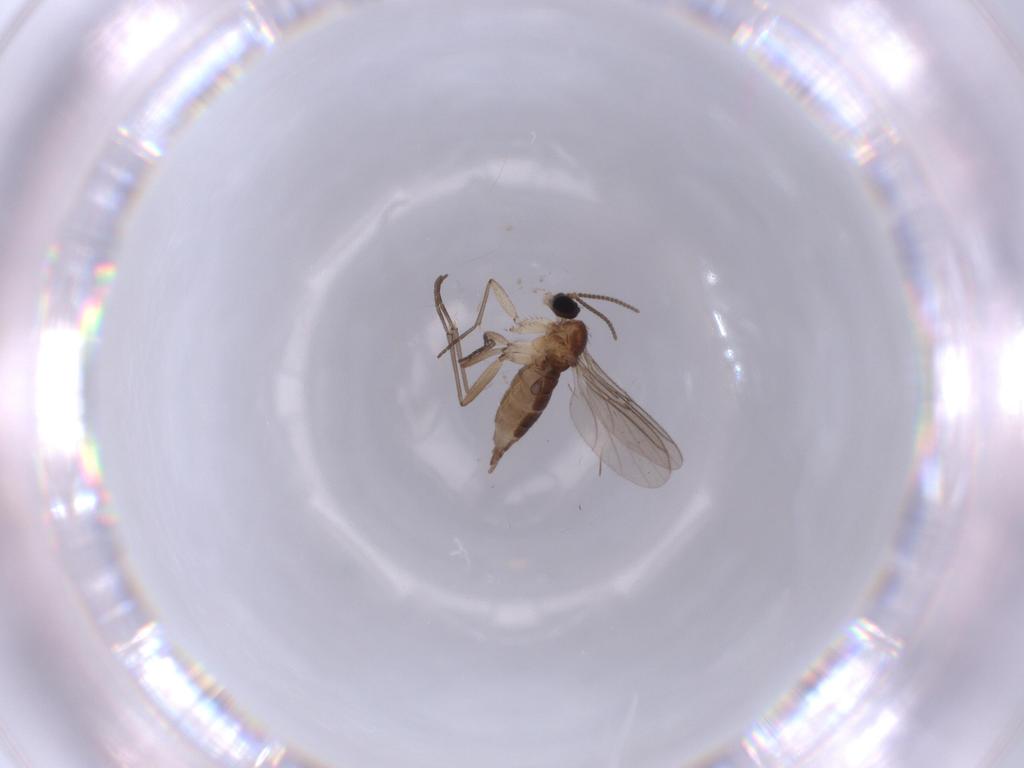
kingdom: Animalia
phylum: Arthropoda
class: Insecta
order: Diptera
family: Sciaridae
